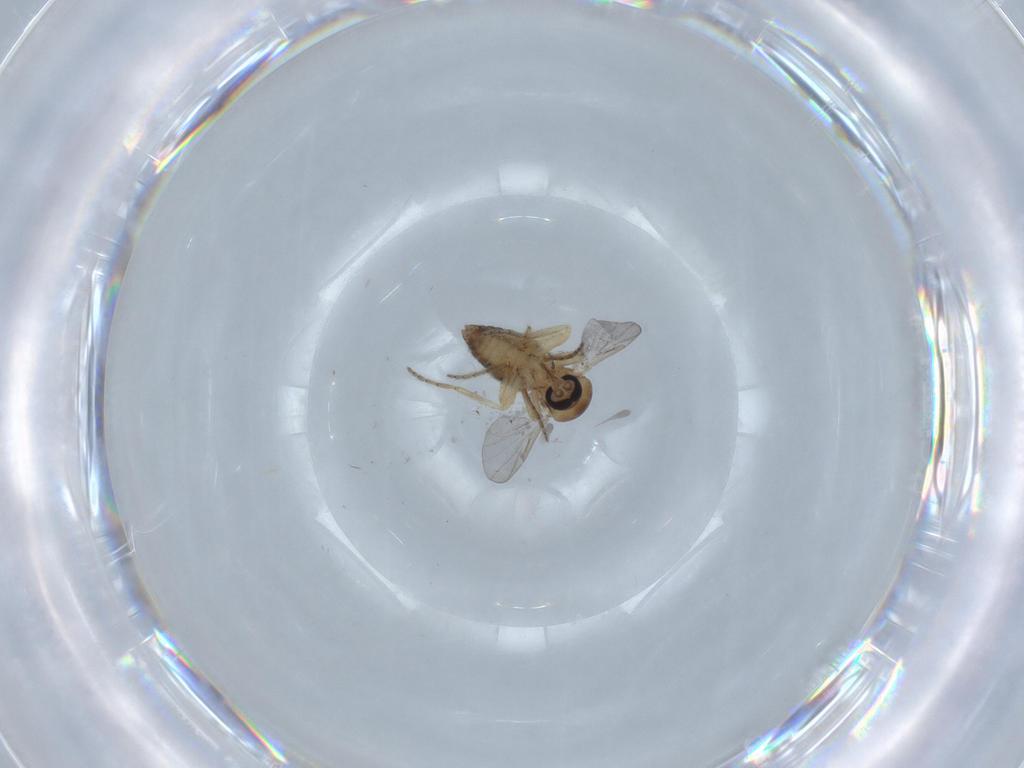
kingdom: Animalia
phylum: Arthropoda
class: Insecta
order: Diptera
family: Ceratopogonidae
